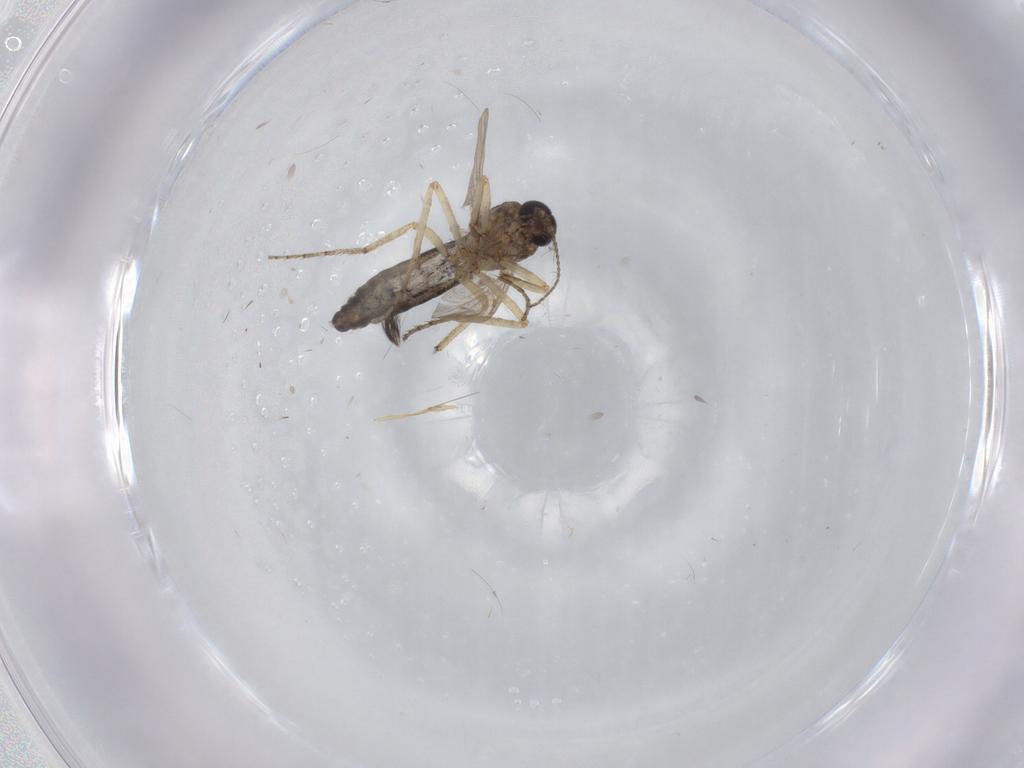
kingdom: Animalia
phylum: Arthropoda
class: Insecta
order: Diptera
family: Ceratopogonidae
